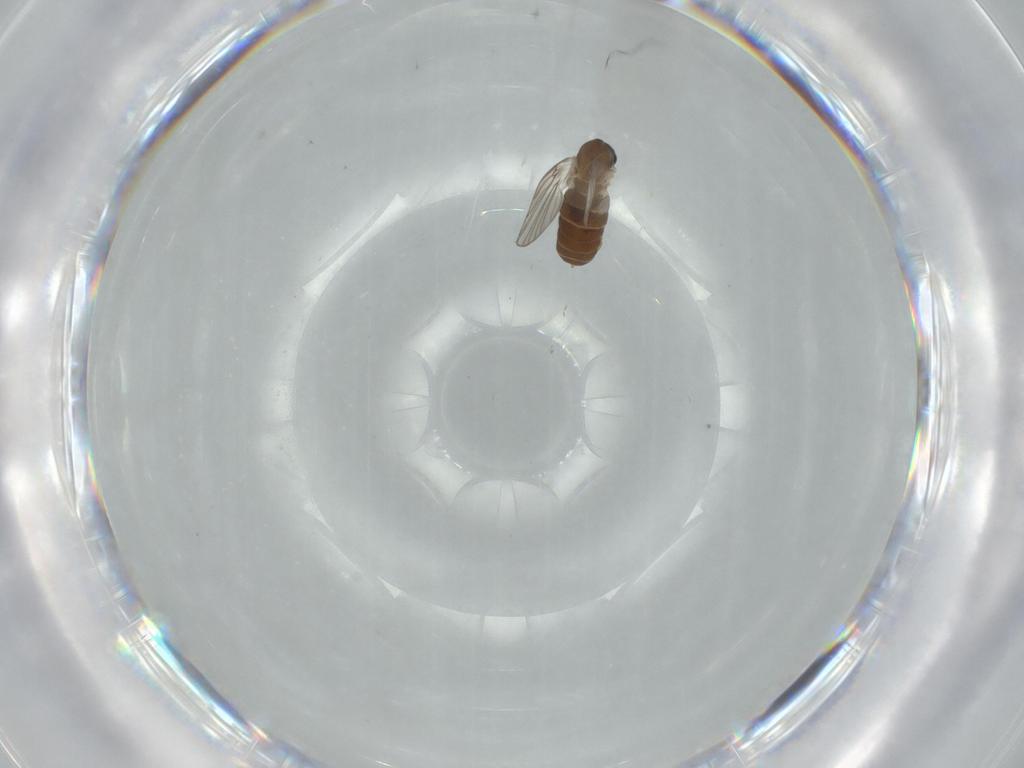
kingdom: Animalia
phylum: Arthropoda
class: Insecta
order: Diptera
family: Psychodidae
